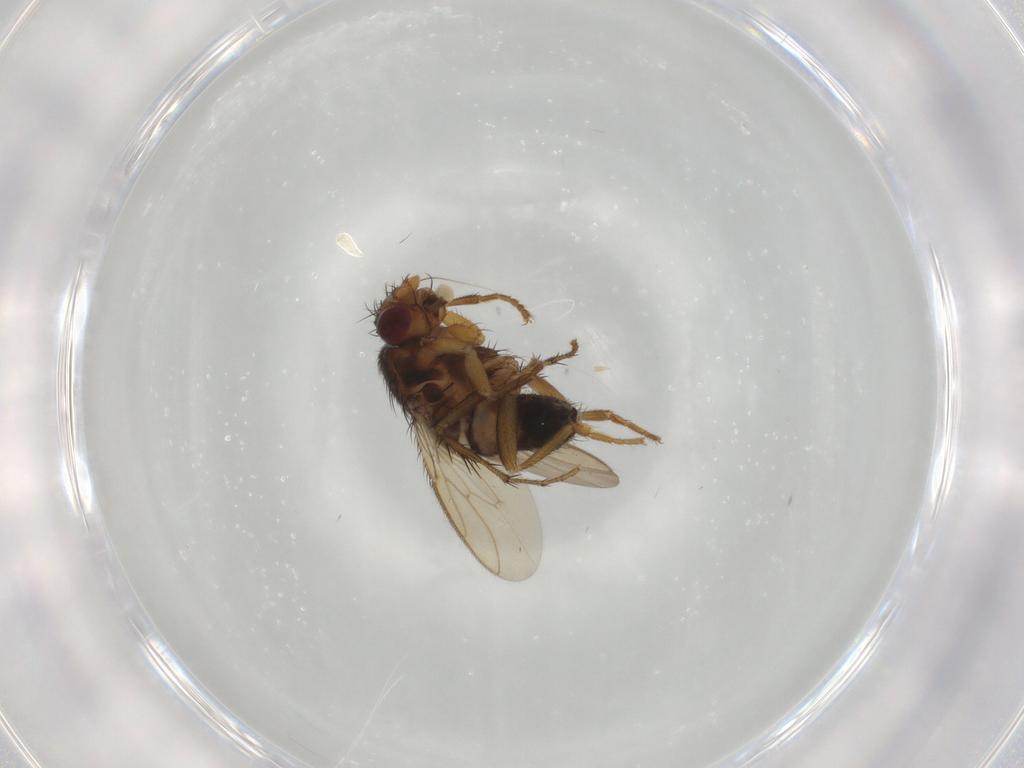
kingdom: Animalia
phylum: Arthropoda
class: Insecta
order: Diptera
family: Sphaeroceridae
